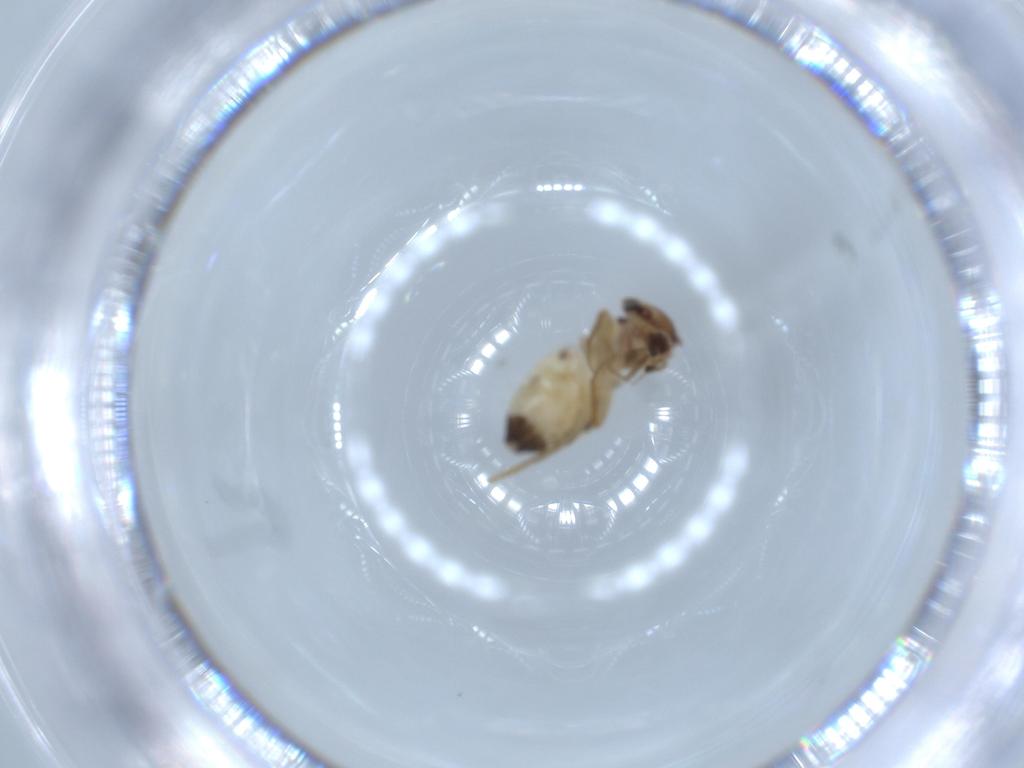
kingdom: Animalia
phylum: Arthropoda
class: Insecta
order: Psocodea
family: Lepidopsocidae
